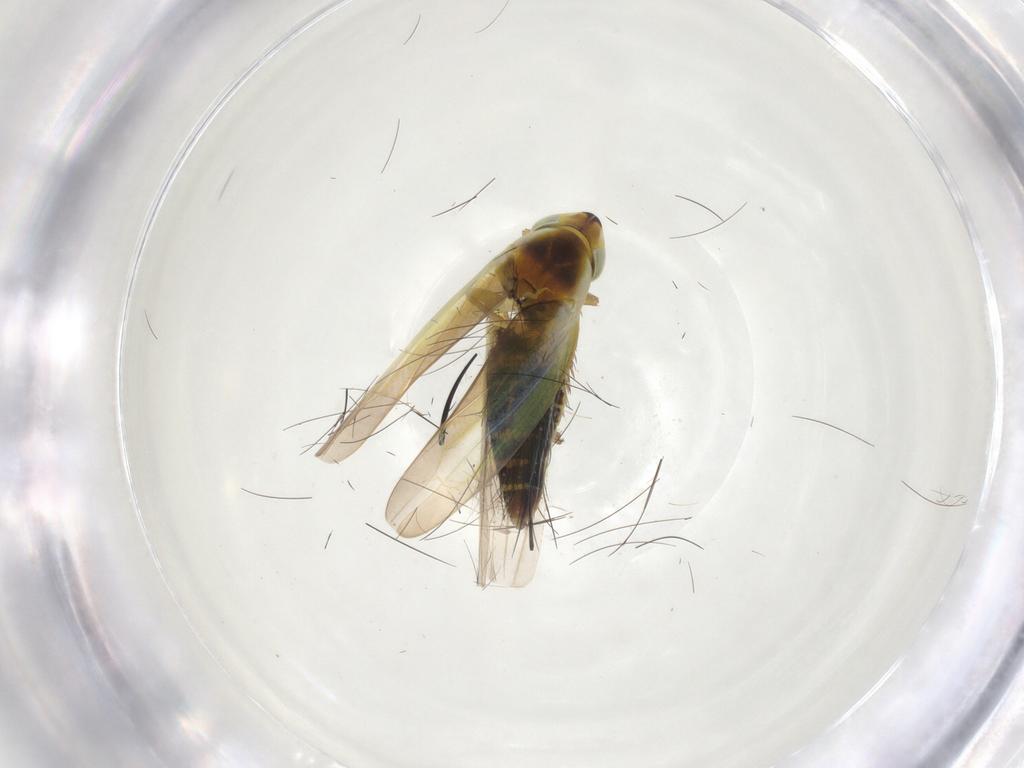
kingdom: Animalia
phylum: Arthropoda
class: Insecta
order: Hemiptera
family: Cicadellidae
